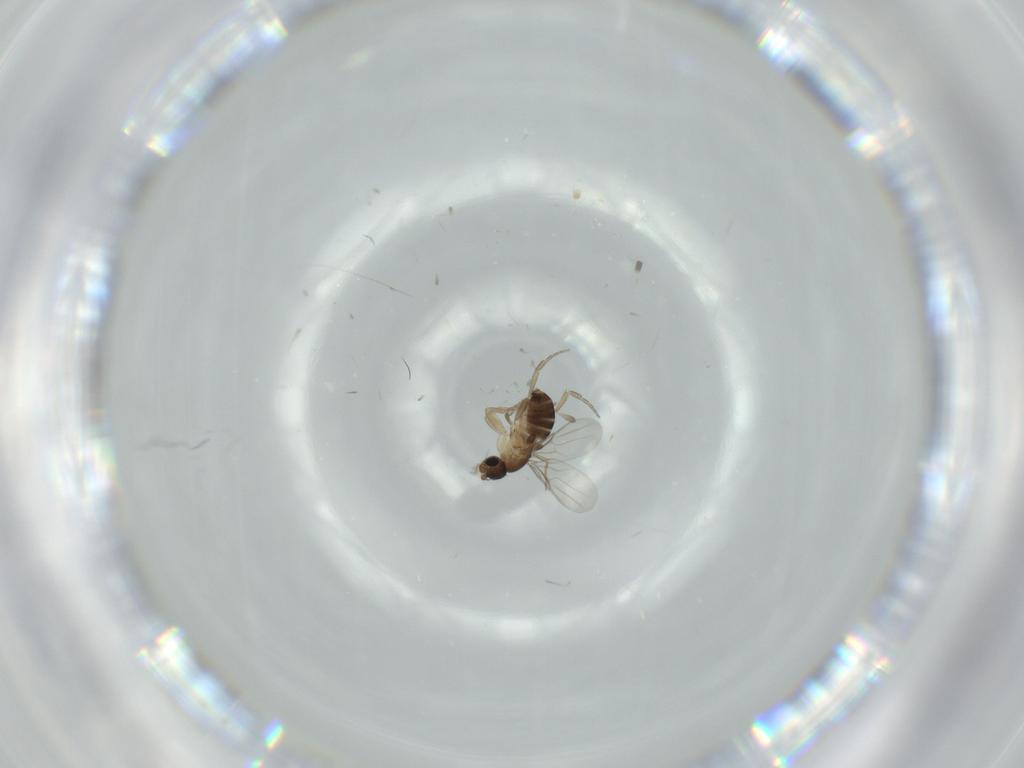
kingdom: Animalia
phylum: Arthropoda
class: Insecta
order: Diptera
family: Phoridae
